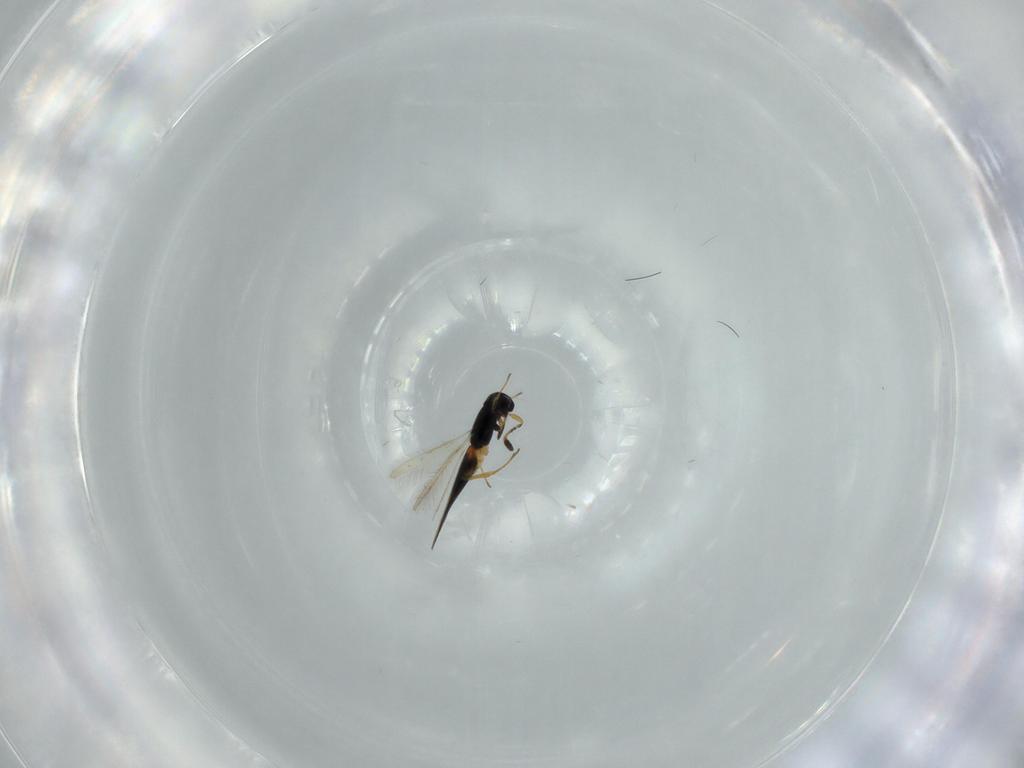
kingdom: Animalia
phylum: Arthropoda
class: Insecta
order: Hymenoptera
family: Scelionidae
